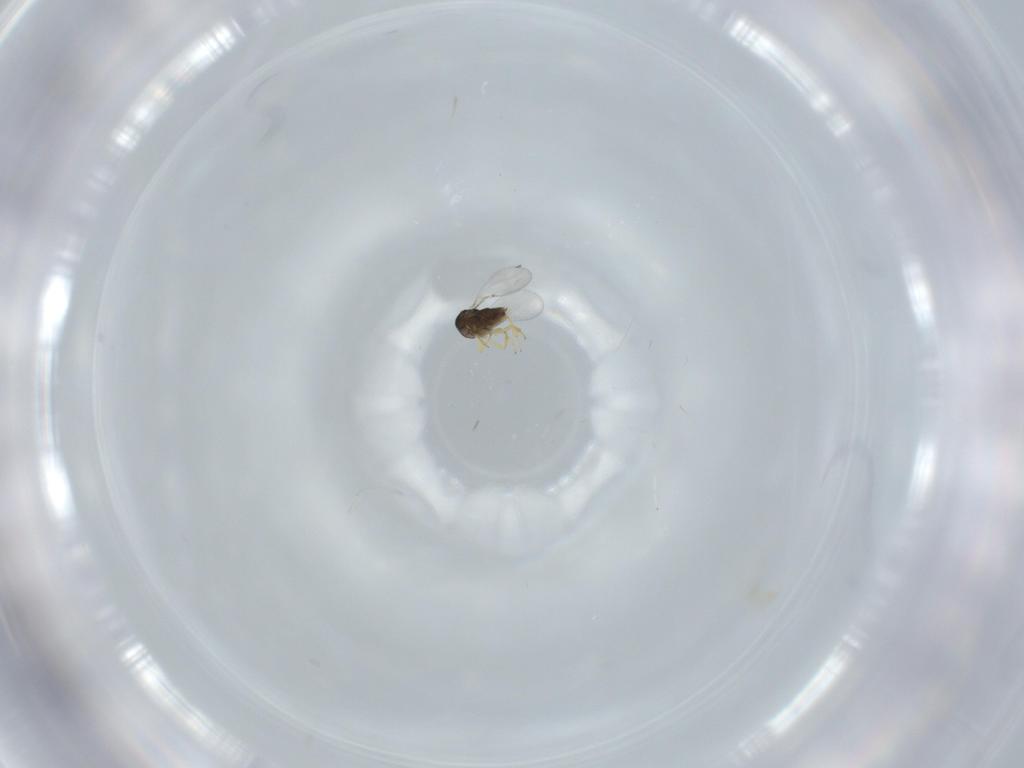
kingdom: Animalia
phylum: Arthropoda
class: Insecta
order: Hymenoptera
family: Encyrtidae
